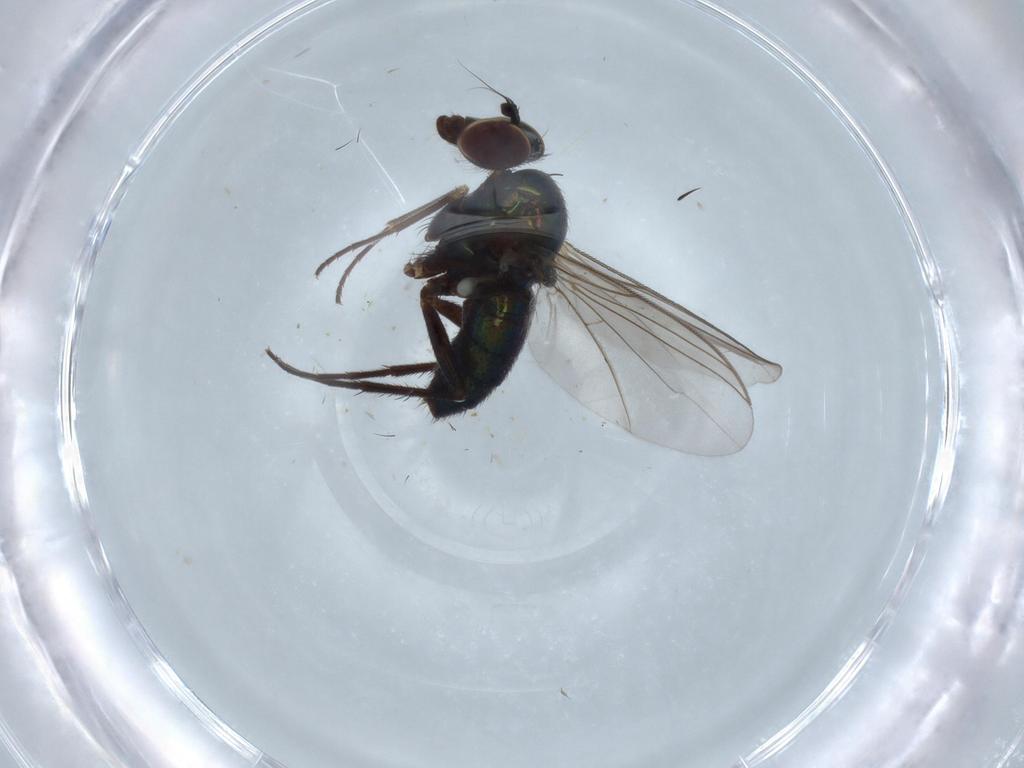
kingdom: Animalia
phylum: Arthropoda
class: Insecta
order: Diptera
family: Dolichopodidae
